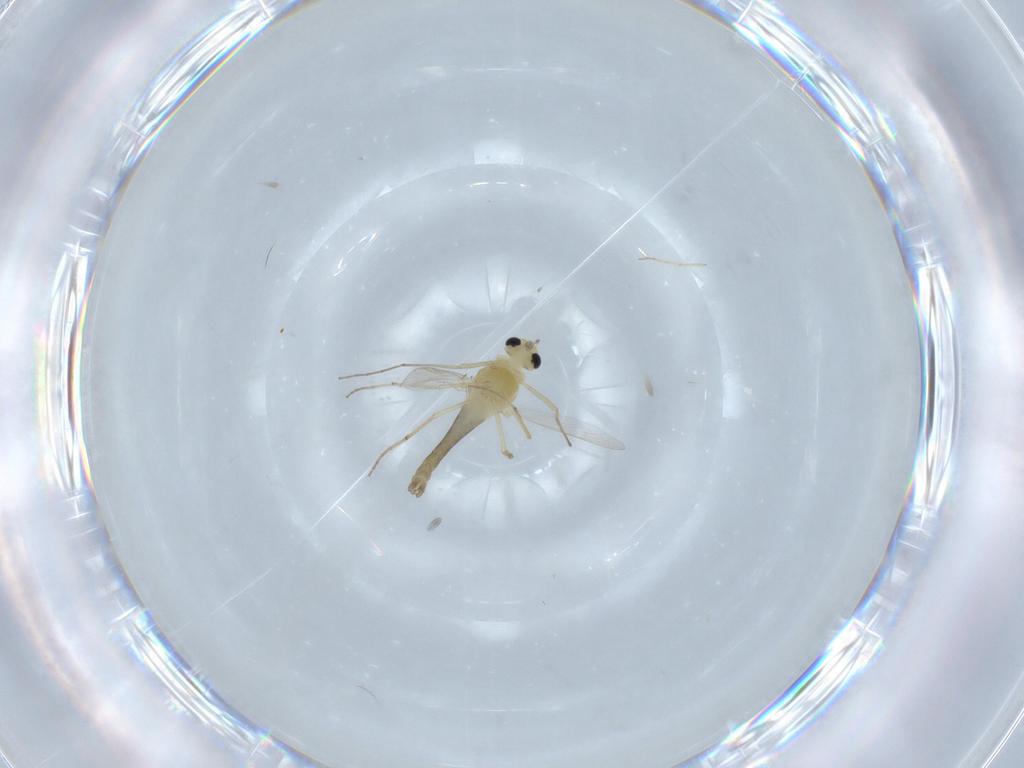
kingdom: Animalia
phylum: Arthropoda
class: Insecta
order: Diptera
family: Chironomidae
